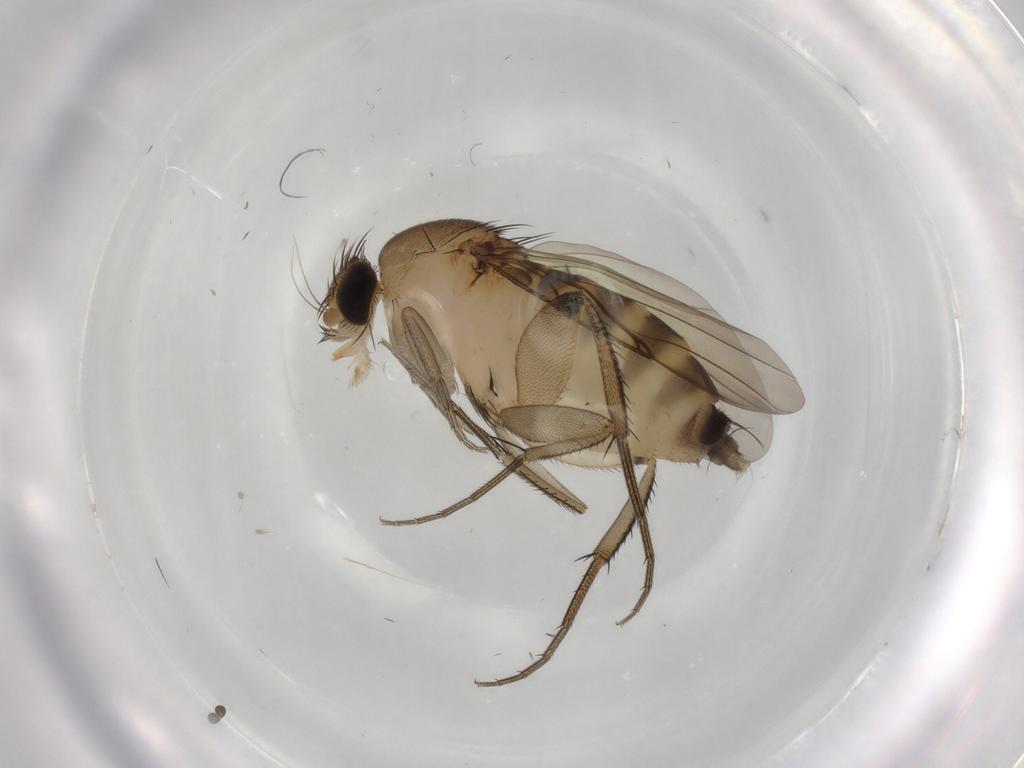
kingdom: Animalia
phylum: Arthropoda
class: Insecta
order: Diptera
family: Phoridae
